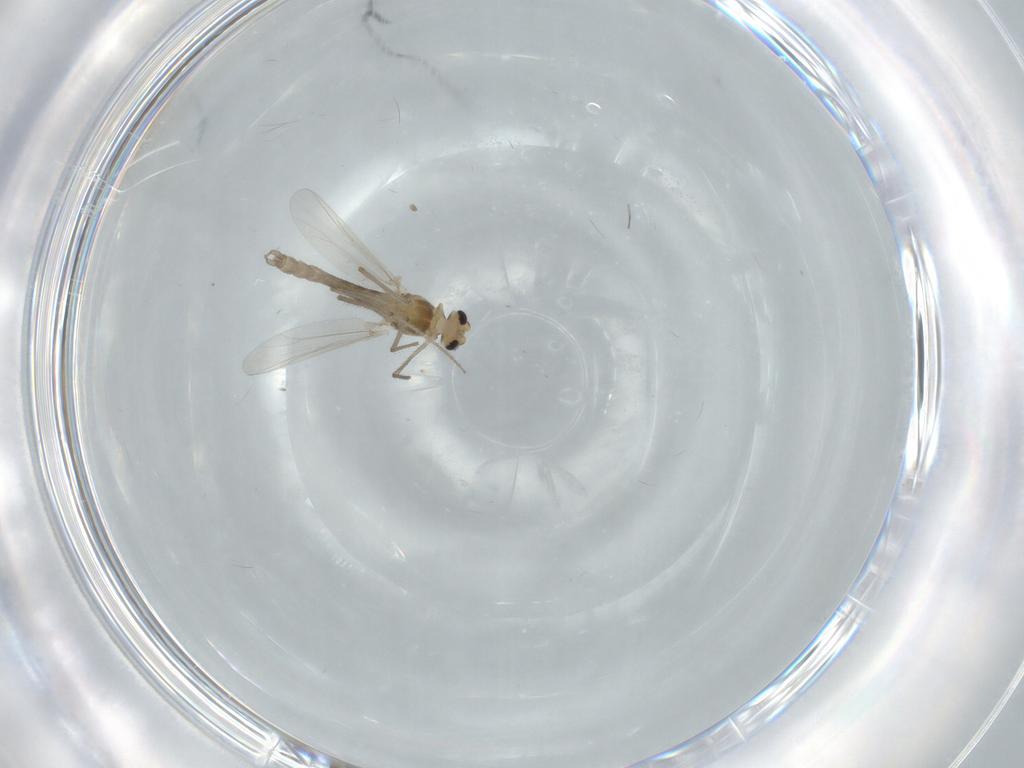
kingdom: Animalia
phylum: Arthropoda
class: Insecta
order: Diptera
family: Chironomidae
